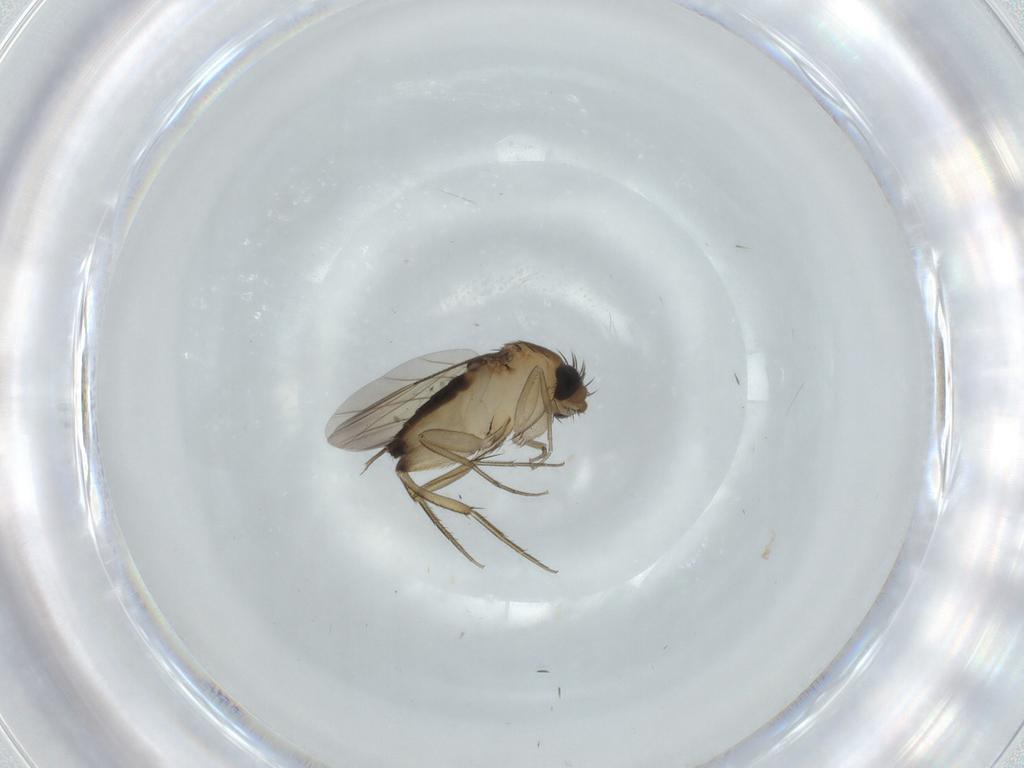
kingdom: Animalia
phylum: Arthropoda
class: Insecta
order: Diptera
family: Phoridae
